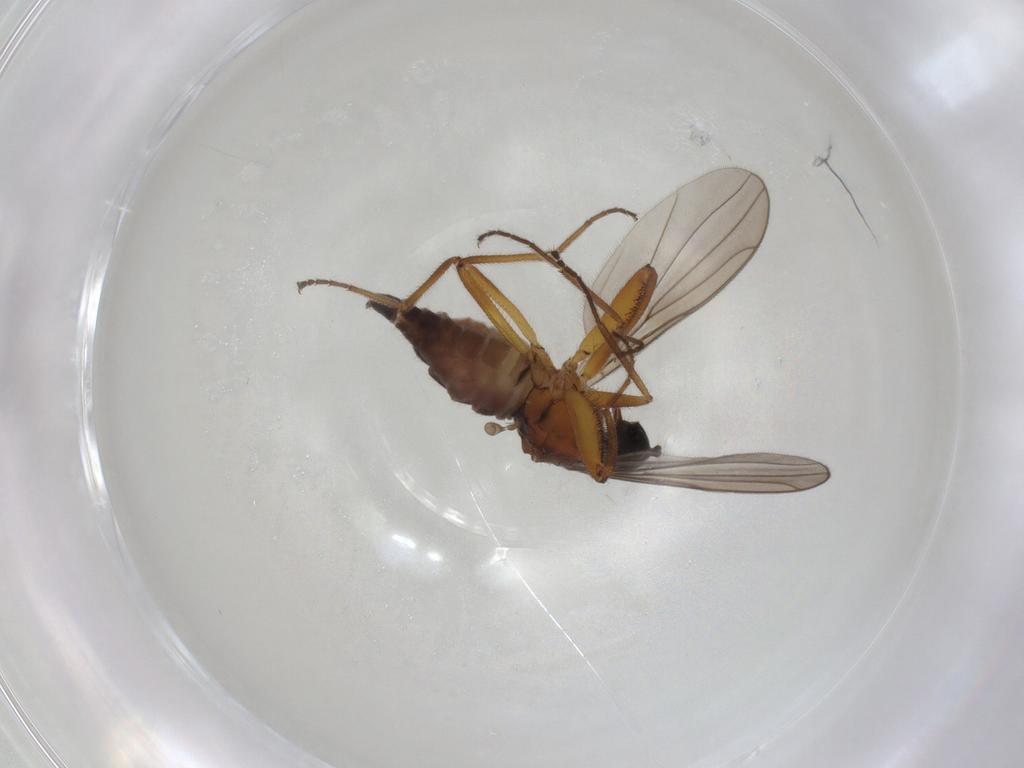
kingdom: Animalia
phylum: Arthropoda
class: Insecta
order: Diptera
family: Hybotidae
